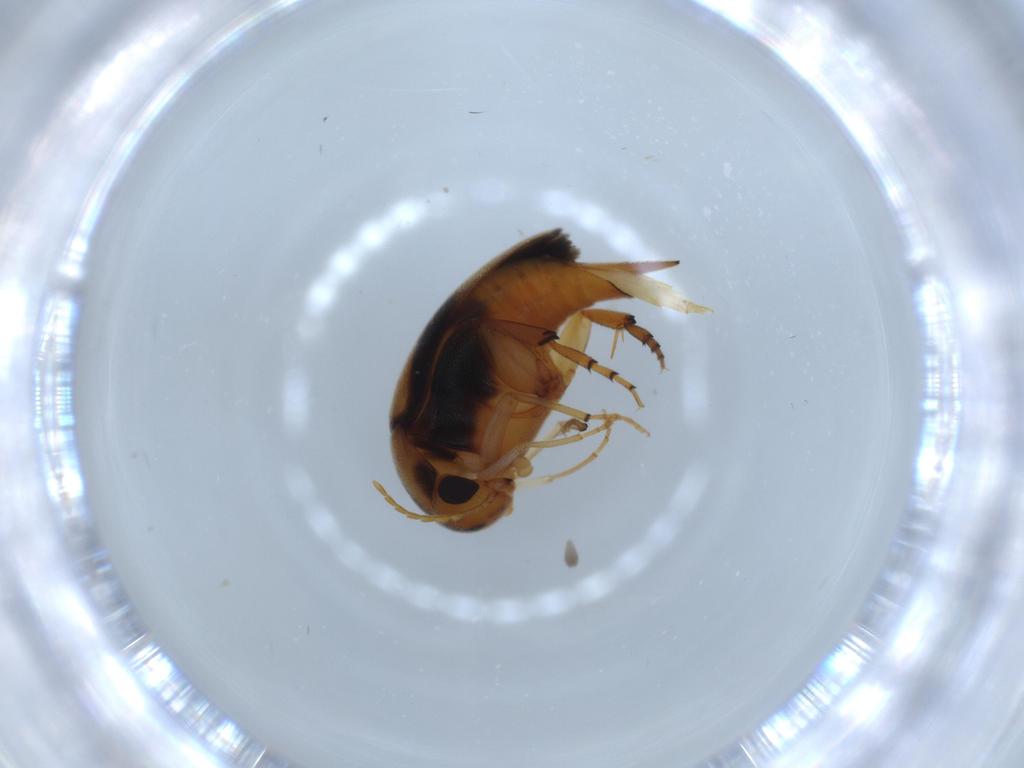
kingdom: Animalia
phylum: Arthropoda
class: Insecta
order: Coleoptera
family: Mordellidae
